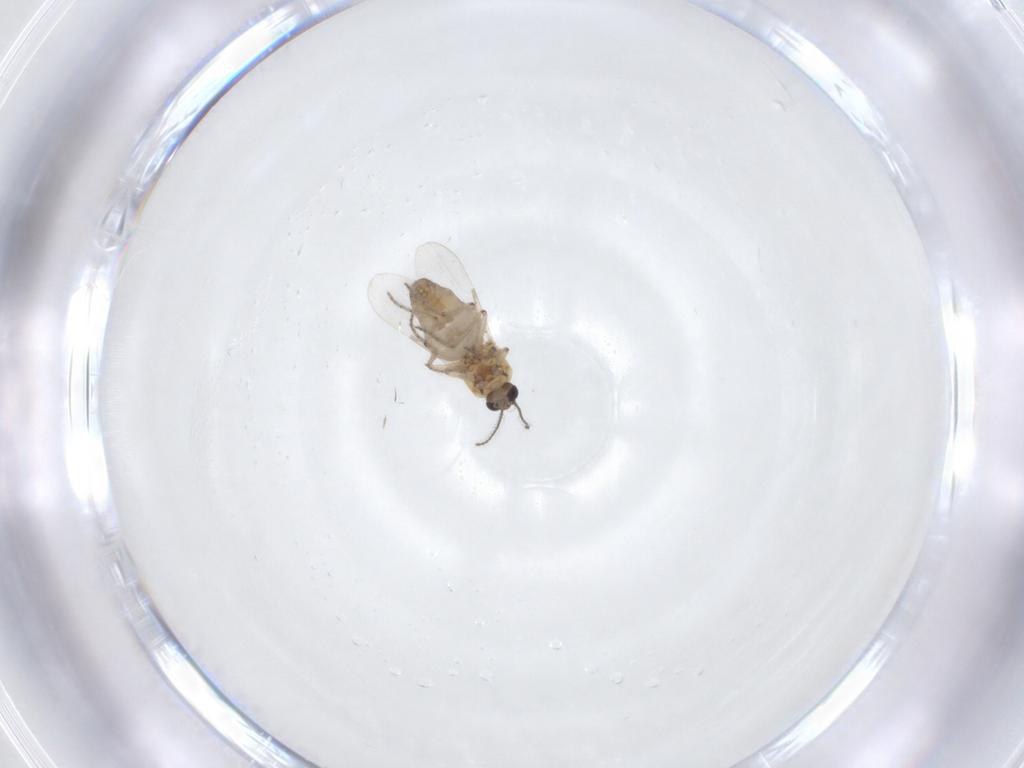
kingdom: Animalia
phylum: Arthropoda
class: Insecta
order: Diptera
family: Ceratopogonidae
